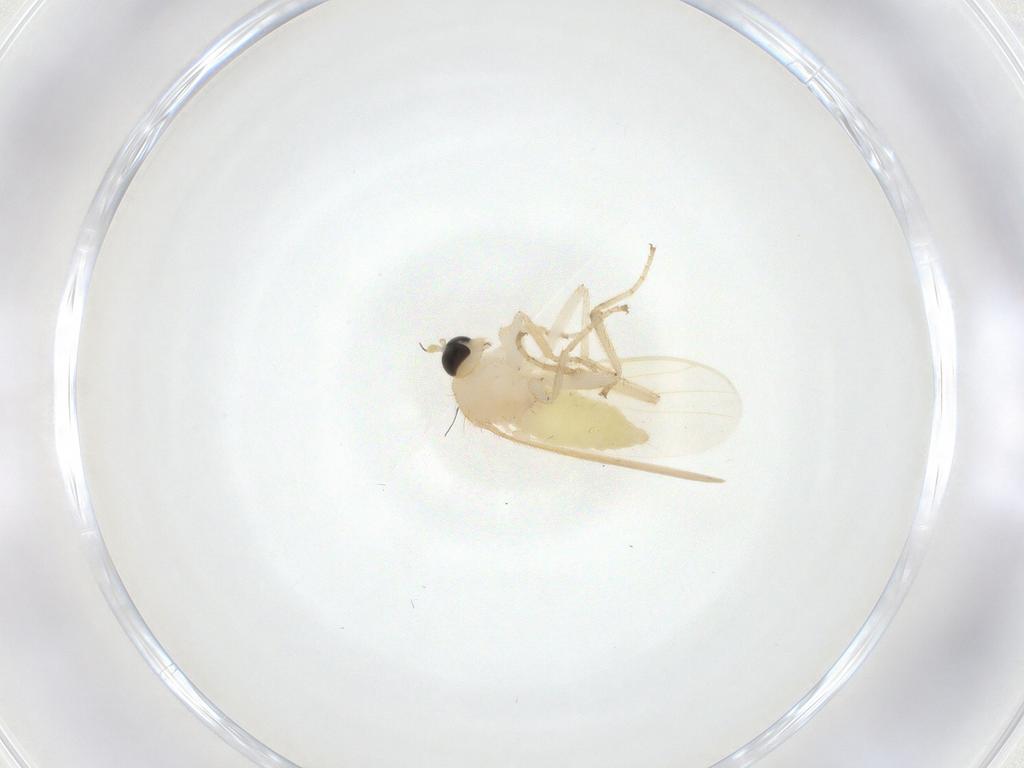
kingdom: Animalia
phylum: Arthropoda
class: Insecta
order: Diptera
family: Hybotidae
